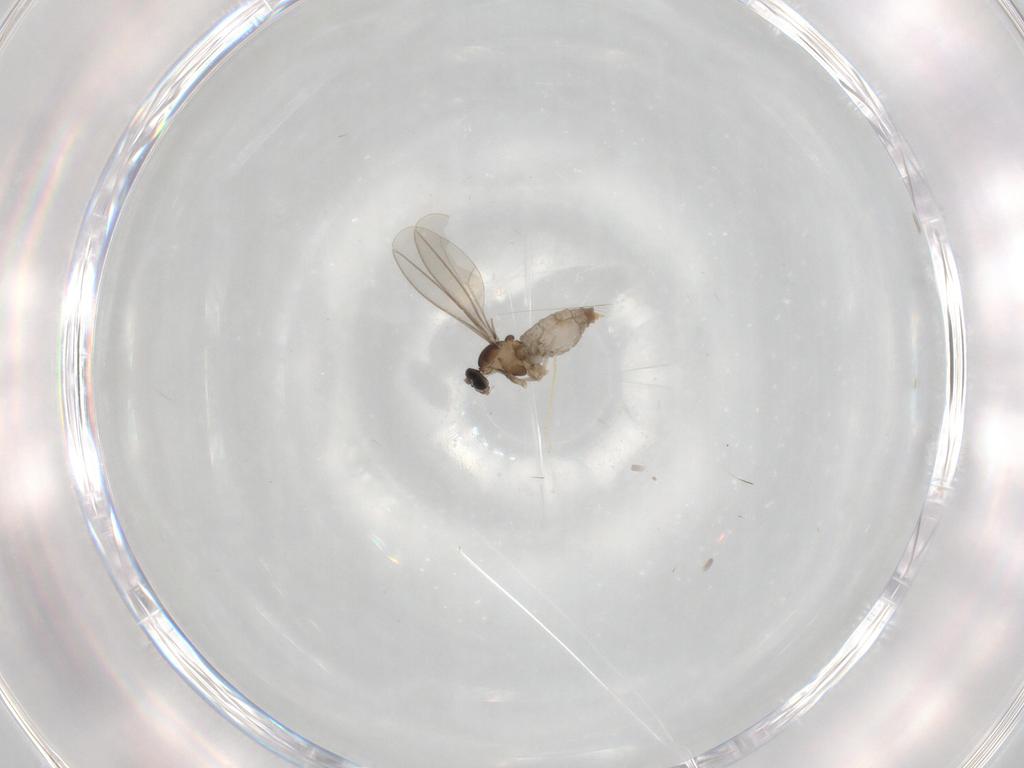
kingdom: Animalia
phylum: Arthropoda
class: Insecta
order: Diptera
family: Cecidomyiidae
